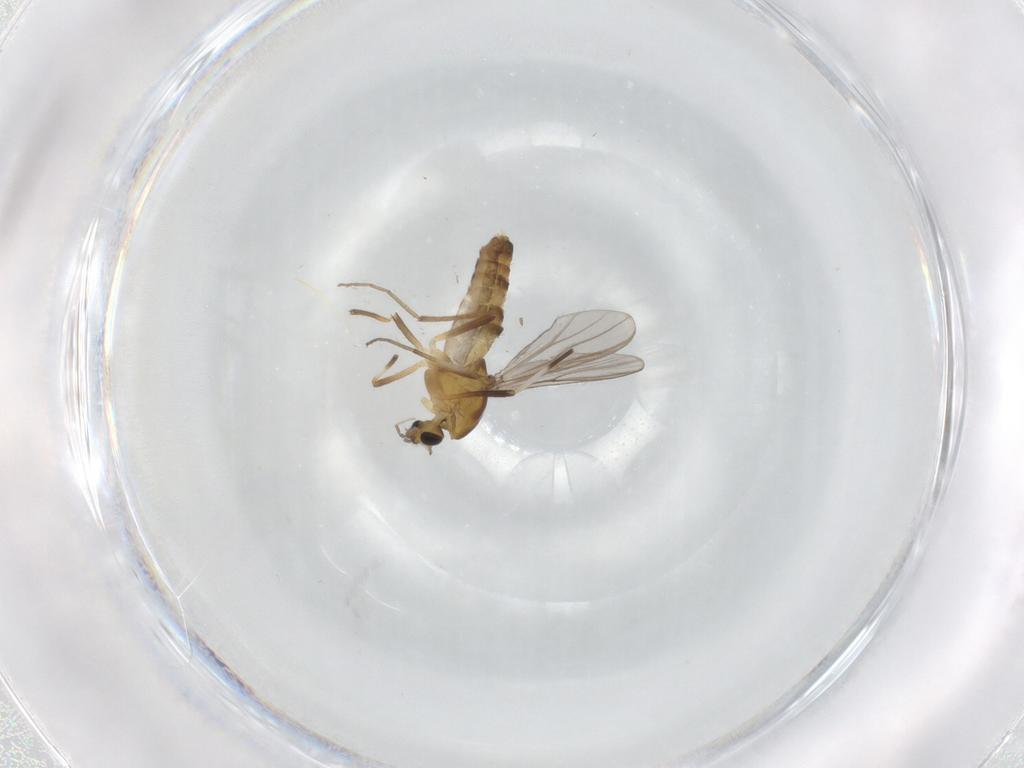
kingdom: Animalia
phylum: Arthropoda
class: Insecta
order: Diptera
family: Chironomidae
